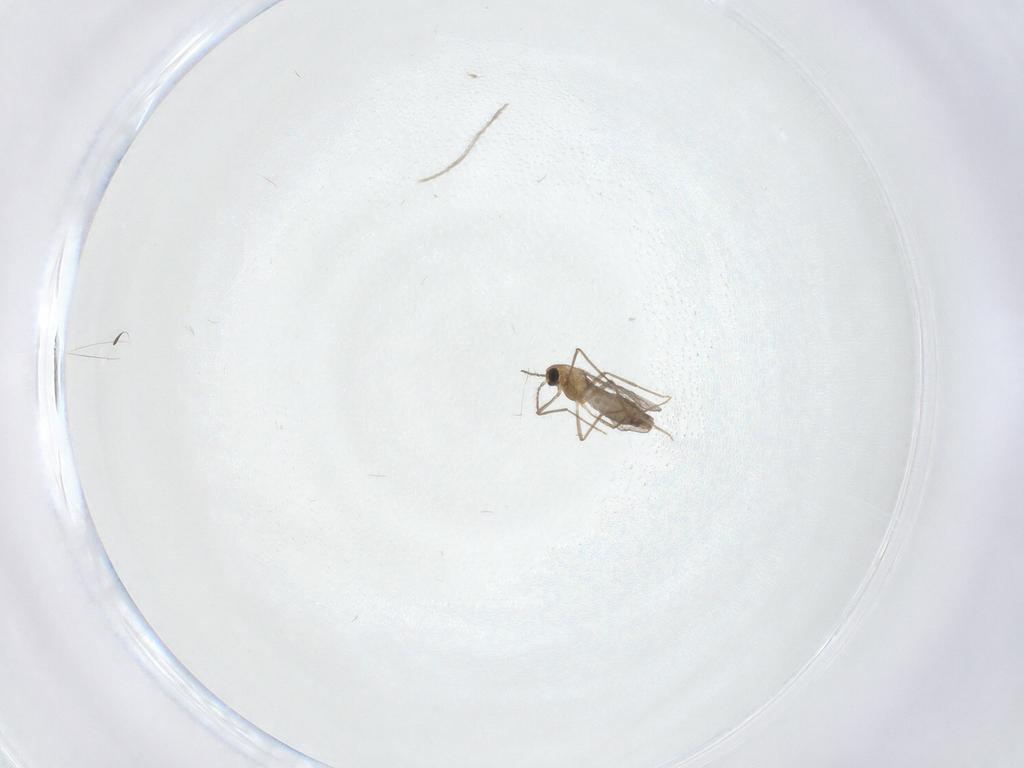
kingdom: Animalia
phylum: Arthropoda
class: Insecta
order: Diptera
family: Chironomidae
